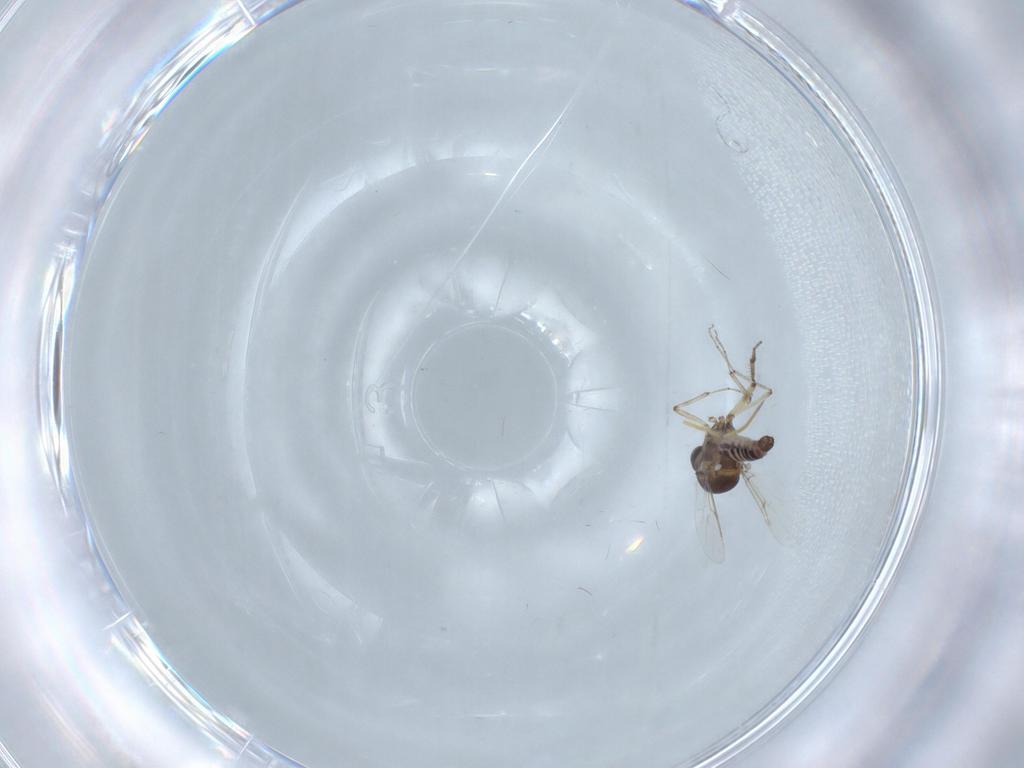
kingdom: Animalia
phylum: Arthropoda
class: Insecta
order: Diptera
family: Ceratopogonidae
